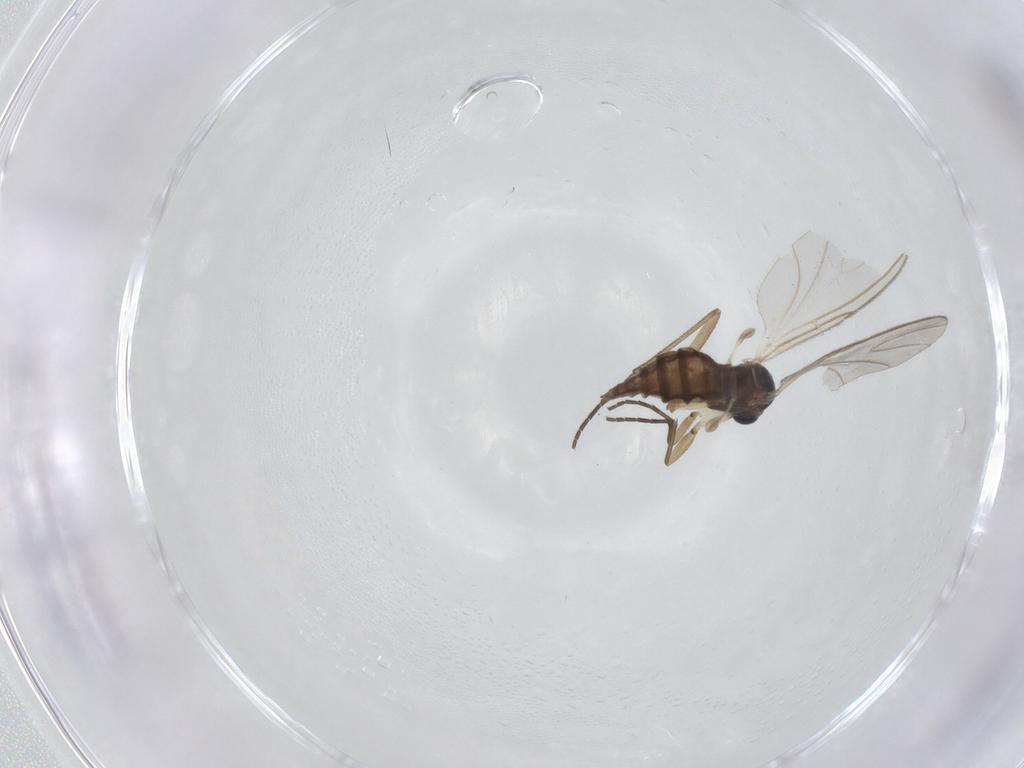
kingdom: Animalia
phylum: Arthropoda
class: Insecta
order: Diptera
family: Sciaridae
